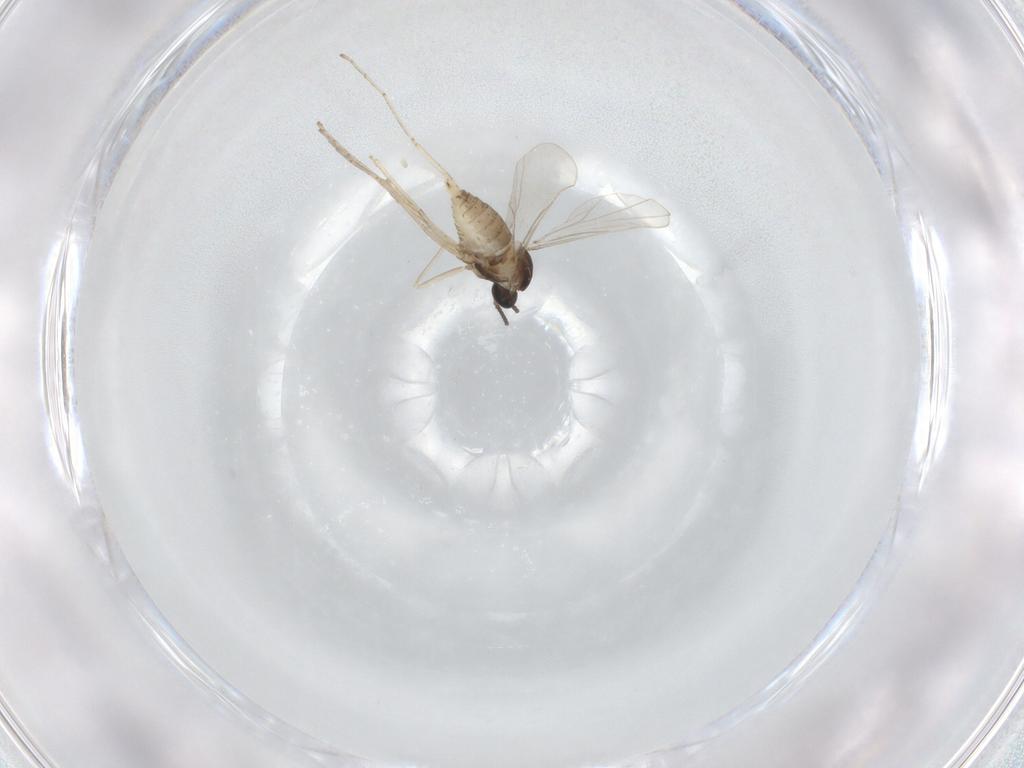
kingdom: Animalia
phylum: Arthropoda
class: Insecta
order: Diptera
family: Cecidomyiidae
